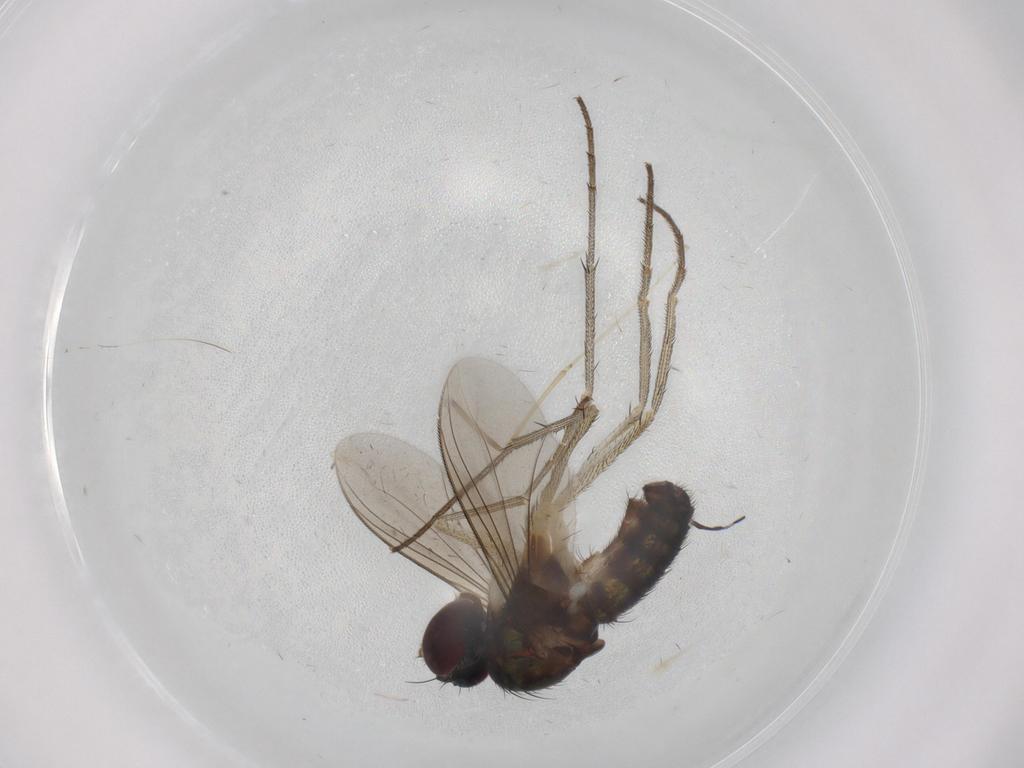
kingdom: Animalia
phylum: Arthropoda
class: Insecta
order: Diptera
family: Dolichopodidae
